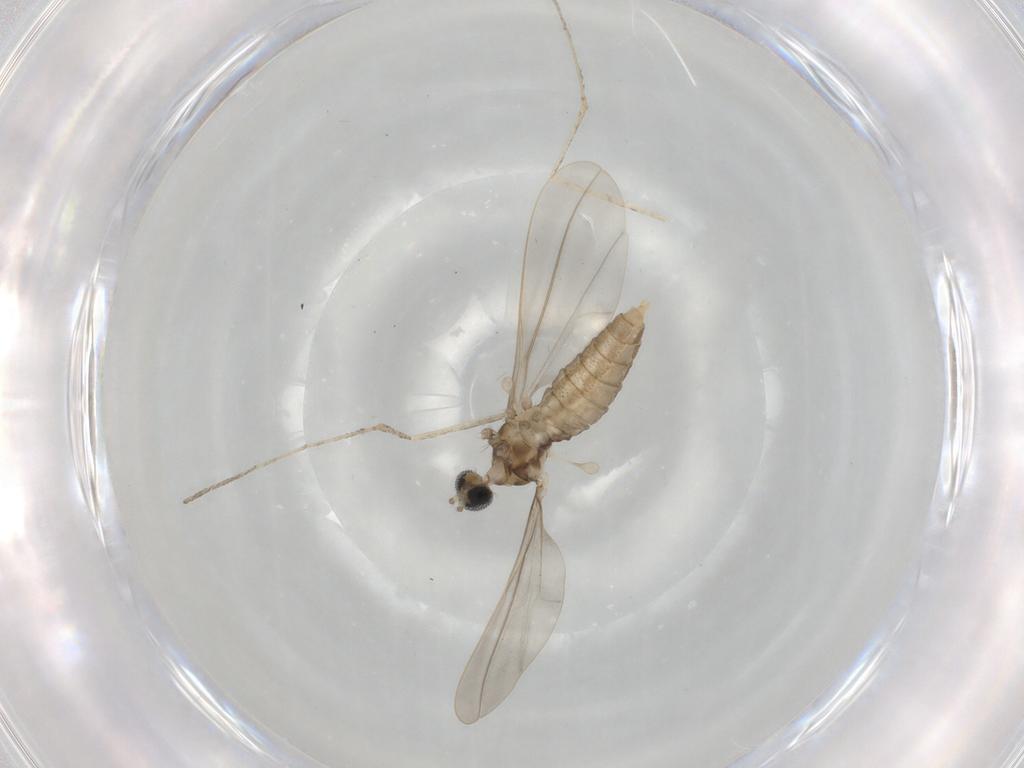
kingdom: Animalia
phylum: Arthropoda
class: Insecta
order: Diptera
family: Cecidomyiidae
